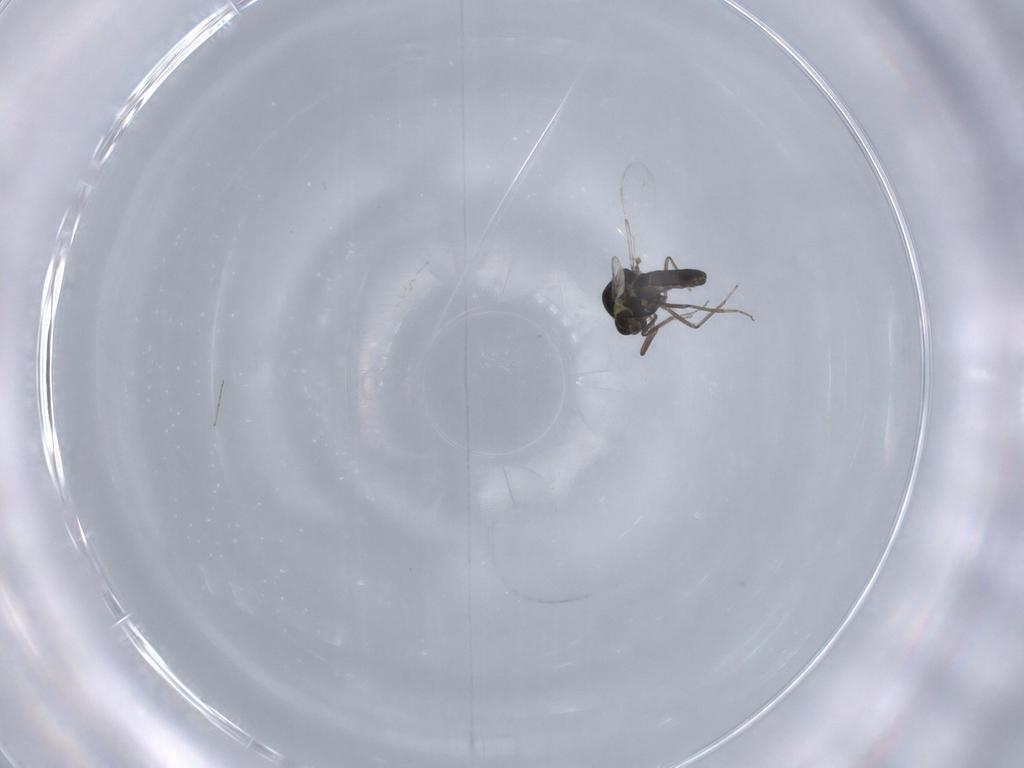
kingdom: Animalia
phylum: Arthropoda
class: Insecta
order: Diptera
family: Ceratopogonidae
